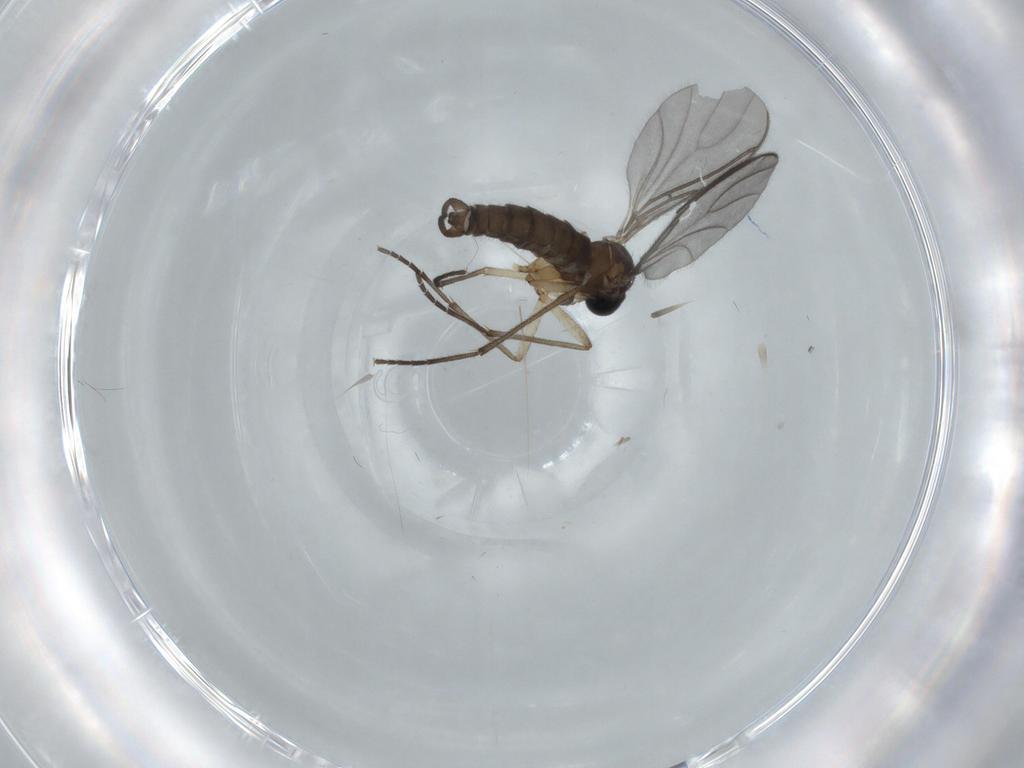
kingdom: Animalia
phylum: Arthropoda
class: Insecta
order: Diptera
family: Sciaridae
